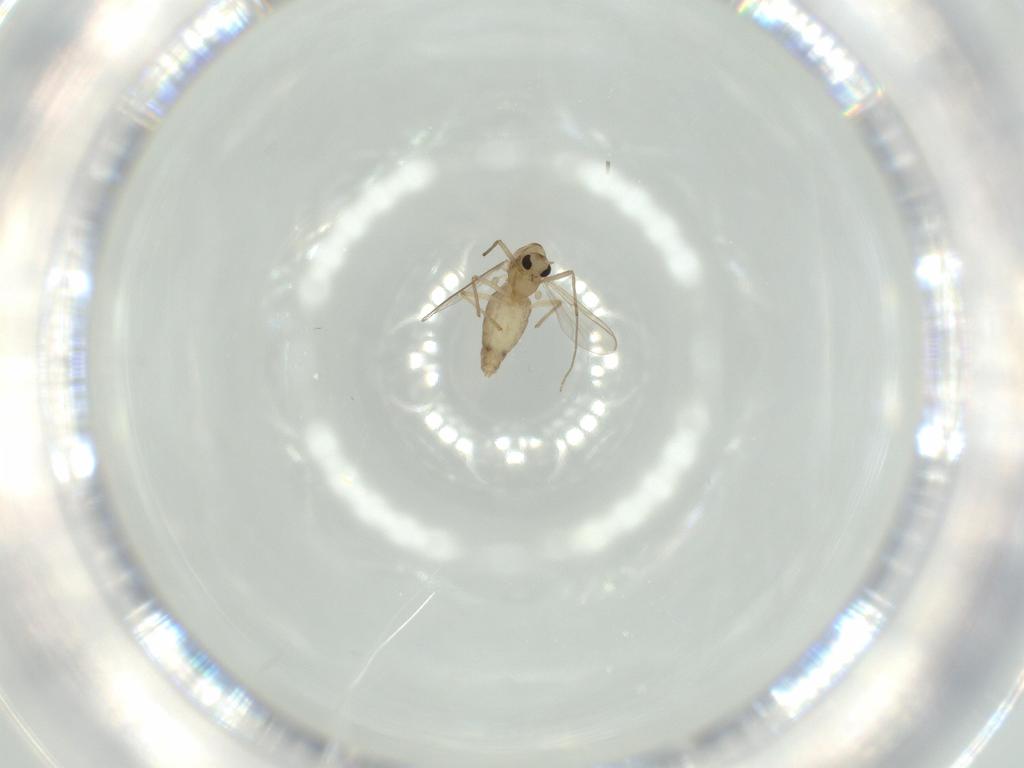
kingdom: Animalia
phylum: Arthropoda
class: Insecta
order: Diptera
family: Chironomidae
